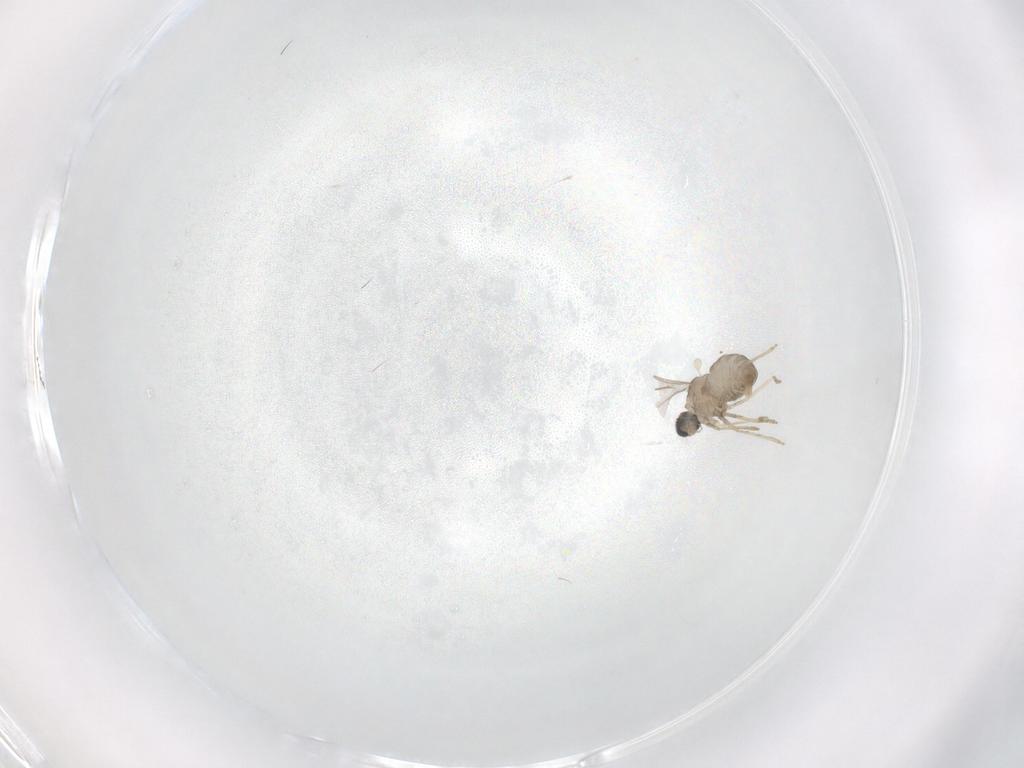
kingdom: Animalia
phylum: Arthropoda
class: Insecta
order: Diptera
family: Cecidomyiidae
